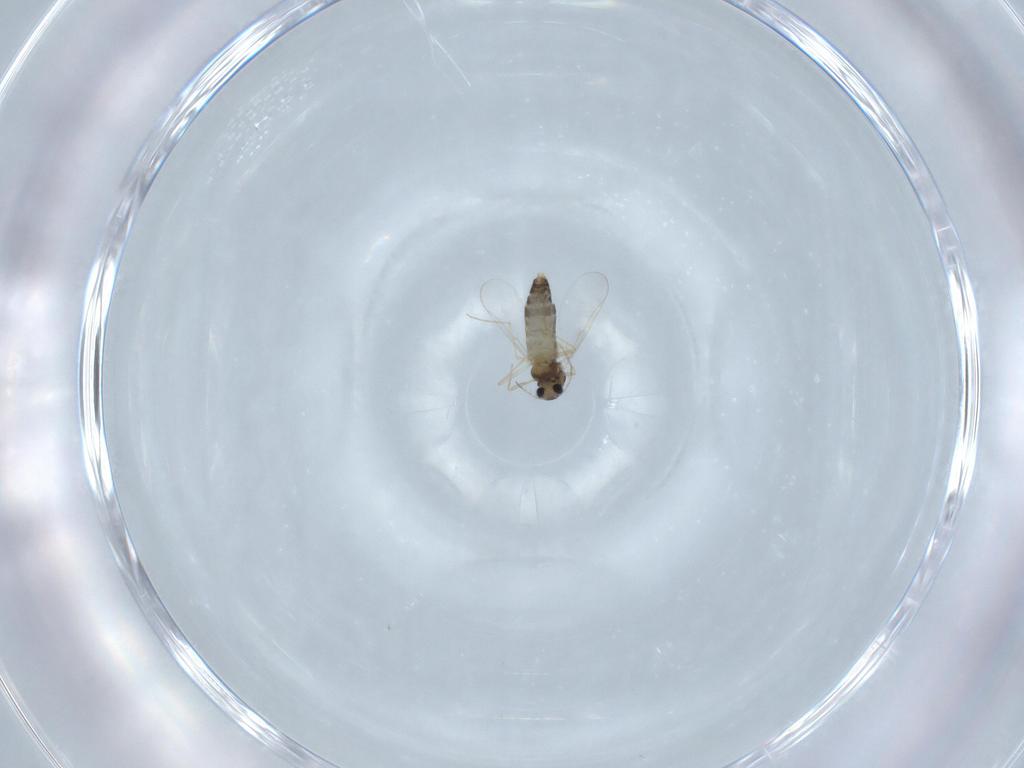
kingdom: Animalia
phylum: Arthropoda
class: Insecta
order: Diptera
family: Chironomidae
